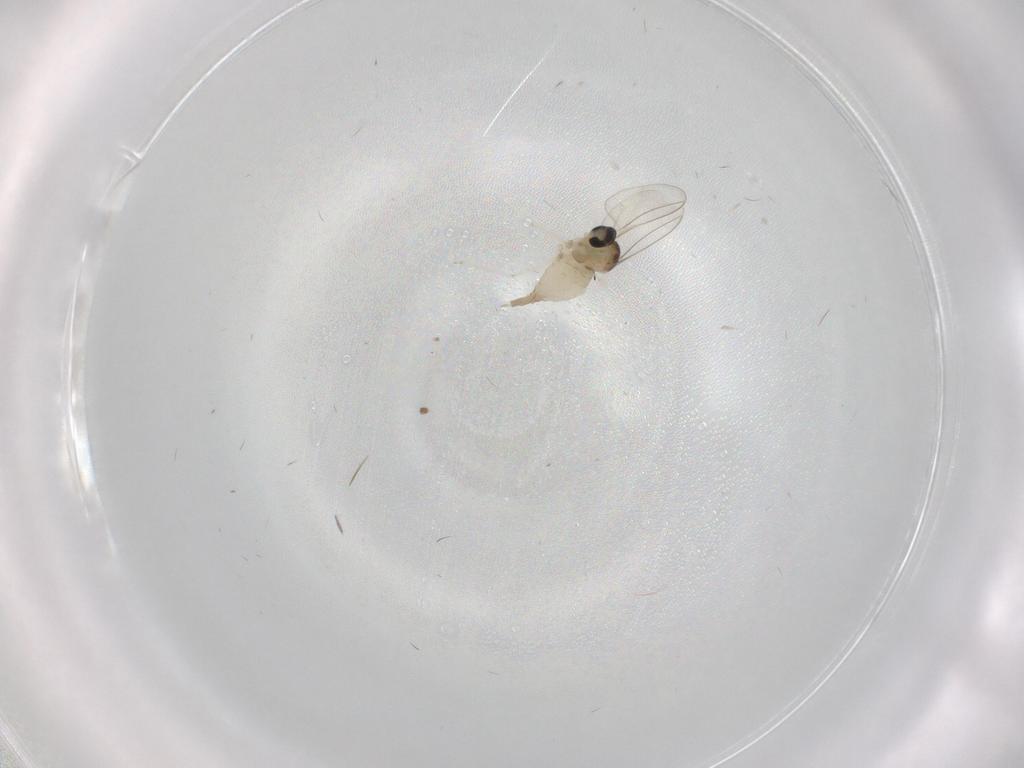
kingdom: Animalia
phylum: Arthropoda
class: Insecta
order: Diptera
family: Cecidomyiidae
